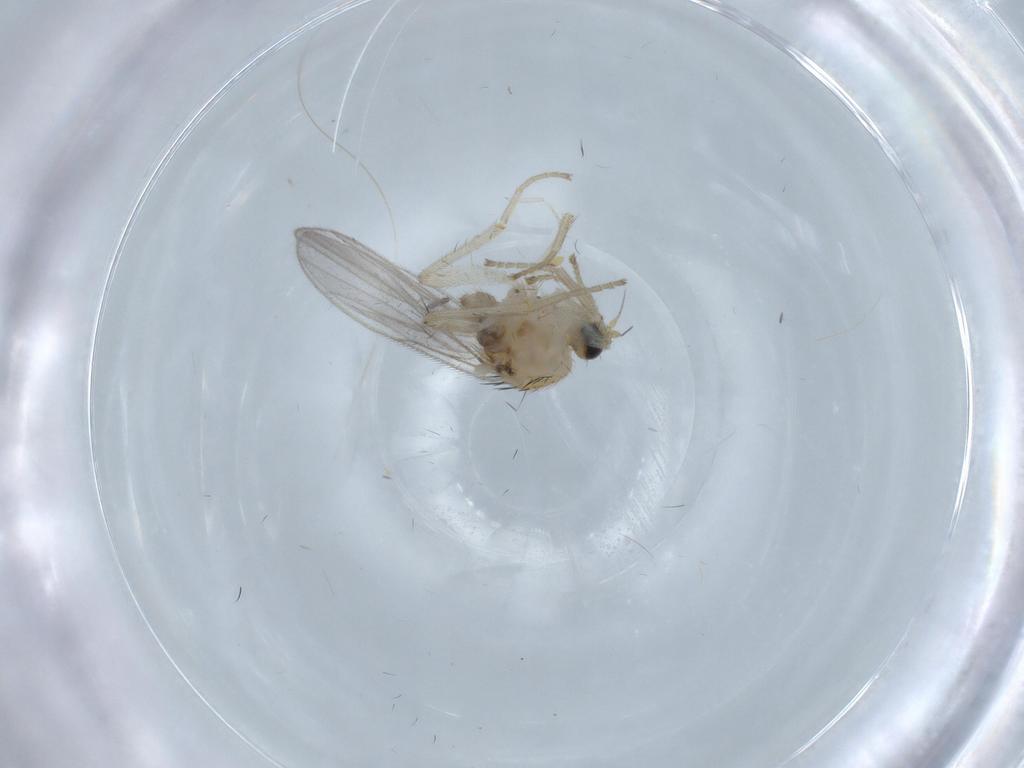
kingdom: Animalia
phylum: Arthropoda
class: Insecta
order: Diptera
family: Hybotidae
